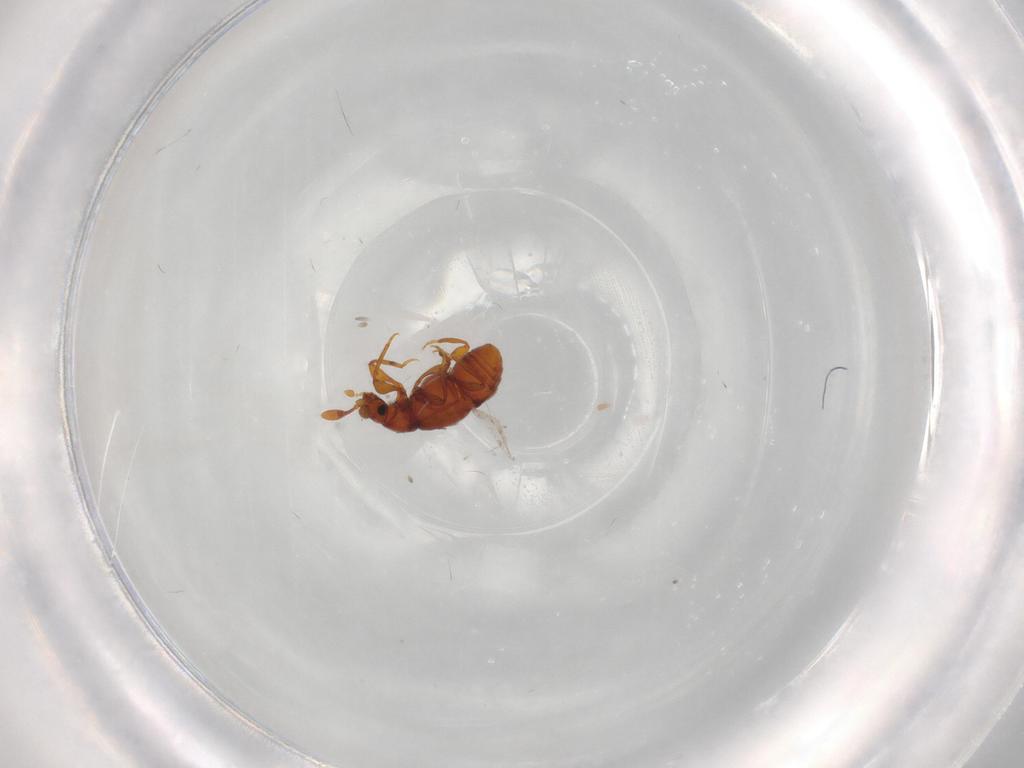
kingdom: Animalia
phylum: Arthropoda
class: Insecta
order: Coleoptera
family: Staphylinidae
